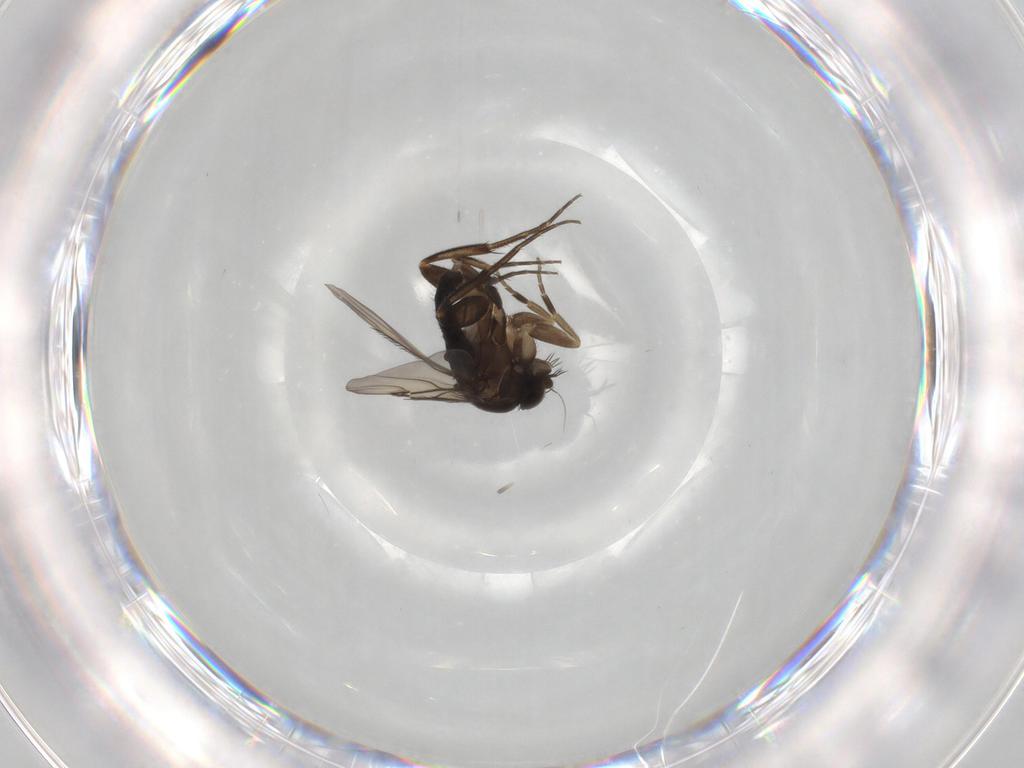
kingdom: Animalia
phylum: Arthropoda
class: Insecta
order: Diptera
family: Phoridae
